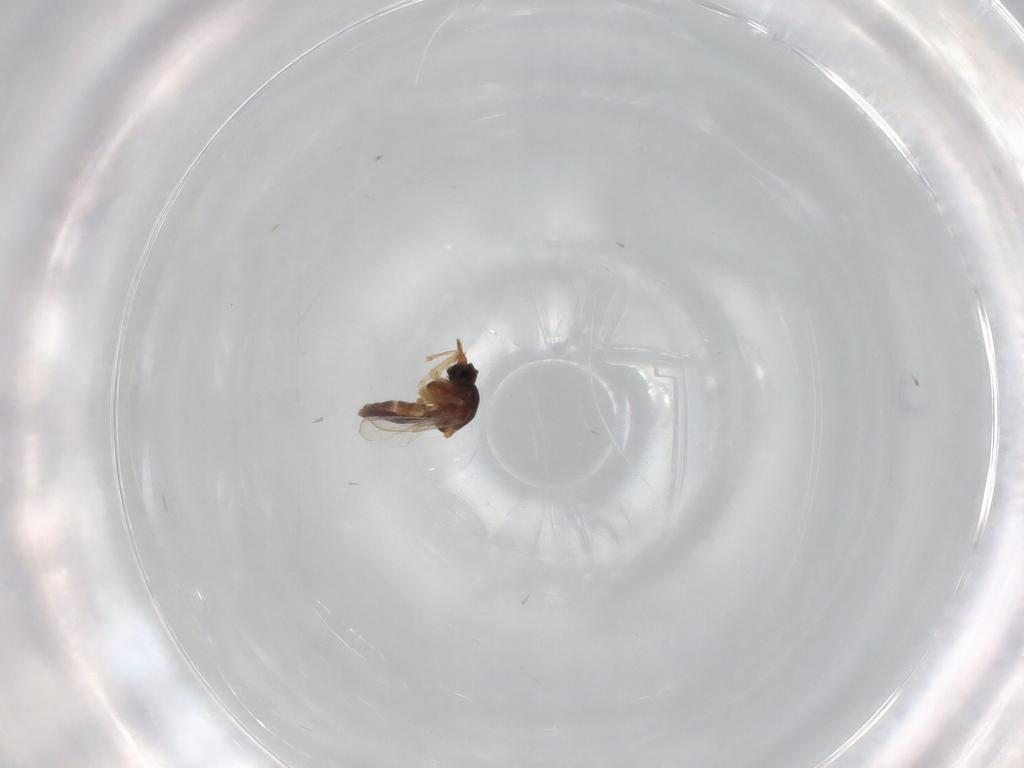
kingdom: Animalia
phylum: Arthropoda
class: Insecta
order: Diptera
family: Ceratopogonidae
